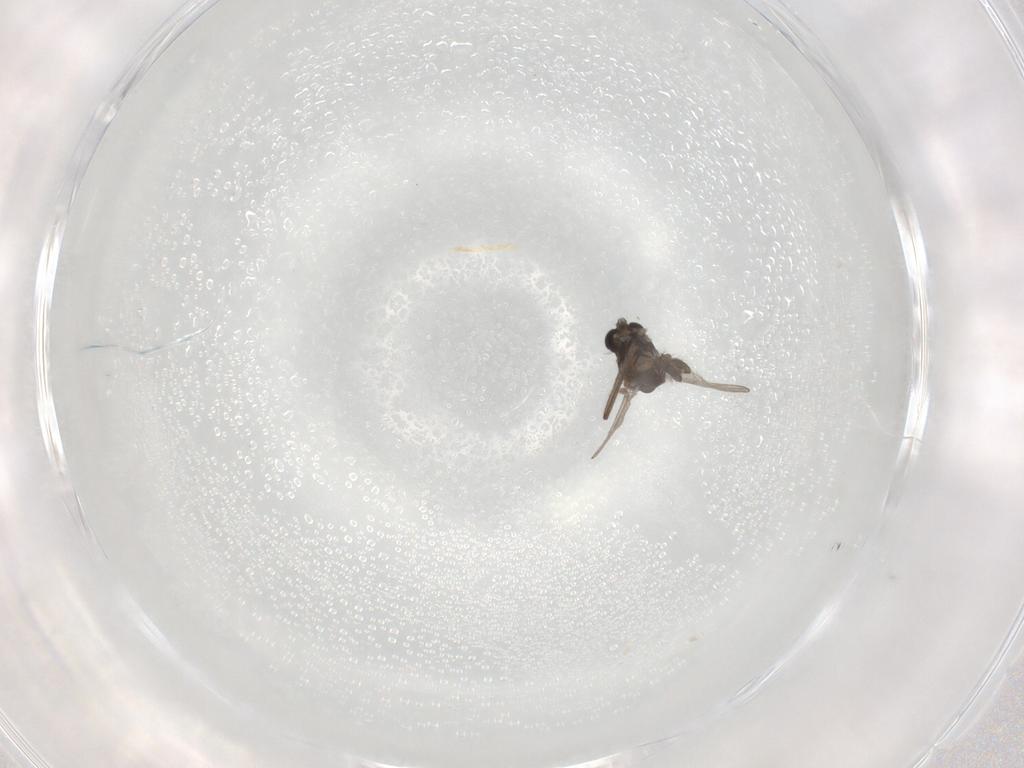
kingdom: Animalia
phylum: Arthropoda
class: Insecta
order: Diptera
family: Chironomidae
